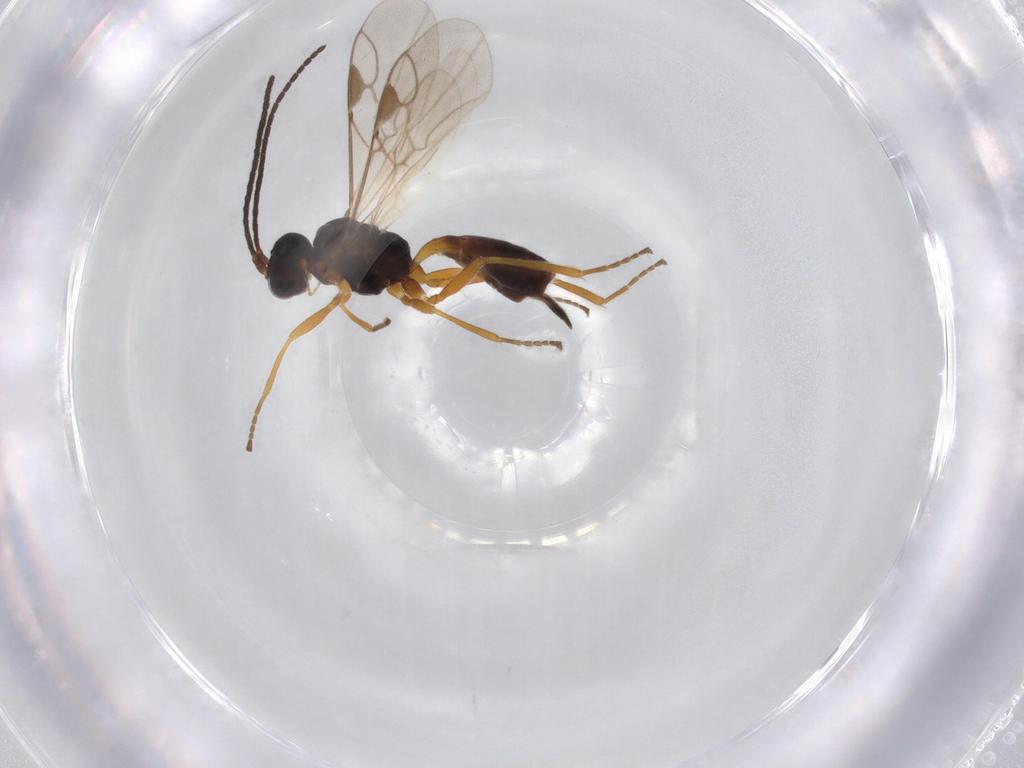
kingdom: Animalia
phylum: Arthropoda
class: Insecta
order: Hymenoptera
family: Braconidae
